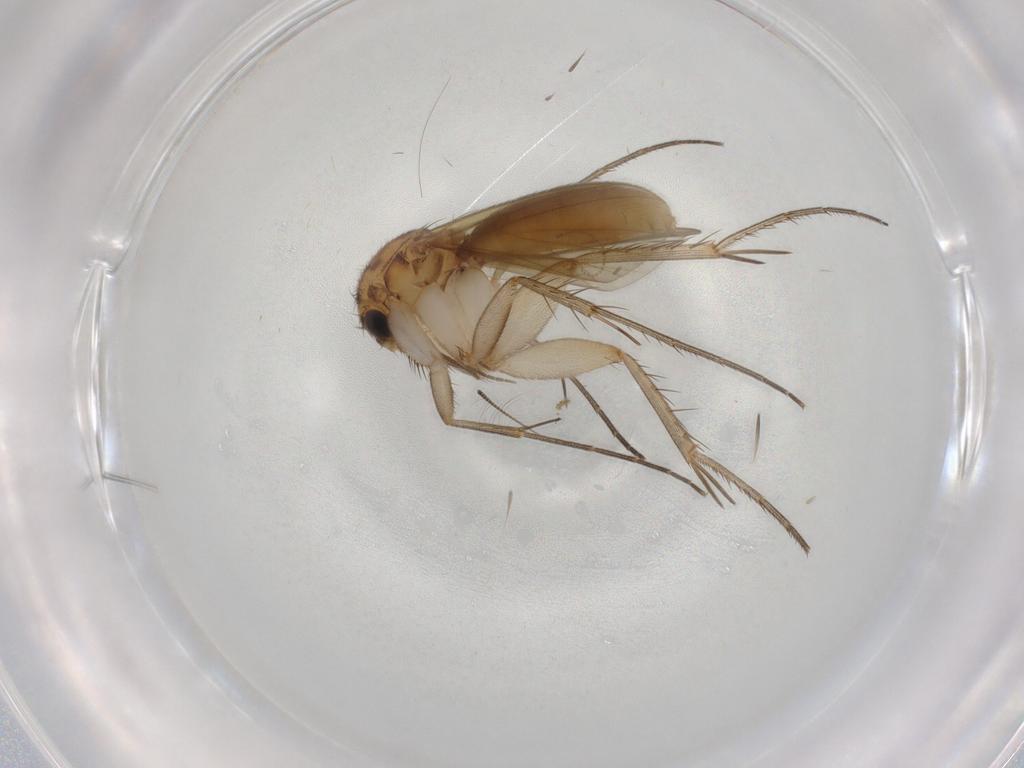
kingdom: Animalia
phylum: Arthropoda
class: Insecta
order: Diptera
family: Mycetophilidae
